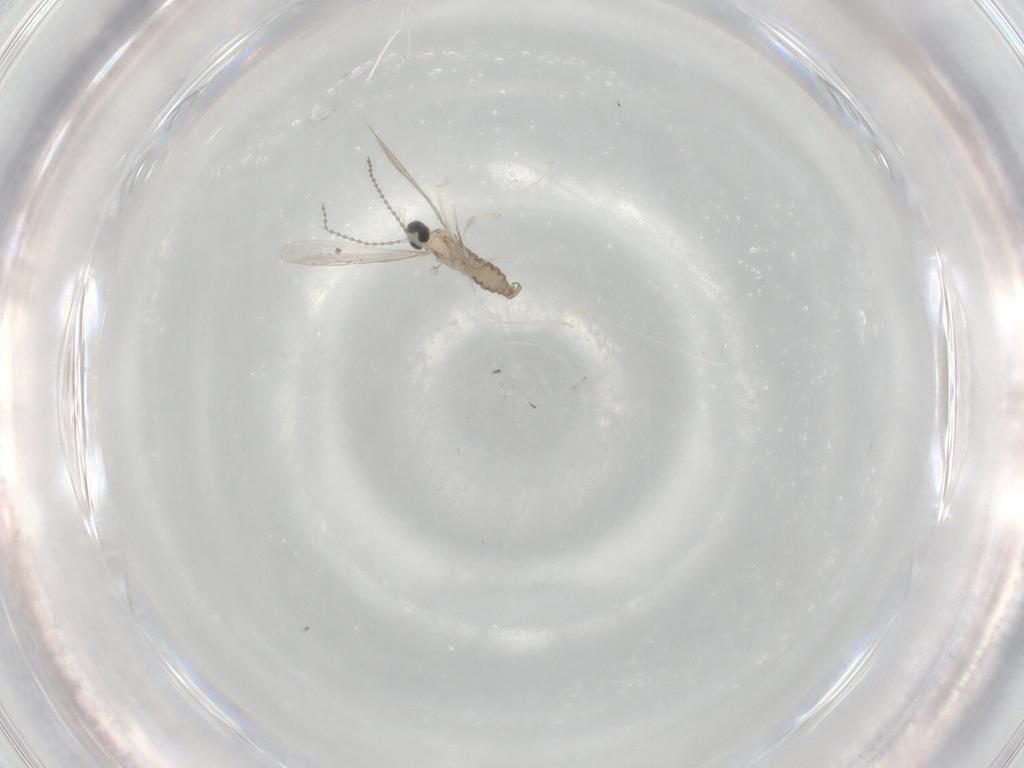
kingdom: Animalia
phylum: Arthropoda
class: Insecta
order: Diptera
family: Cecidomyiidae
